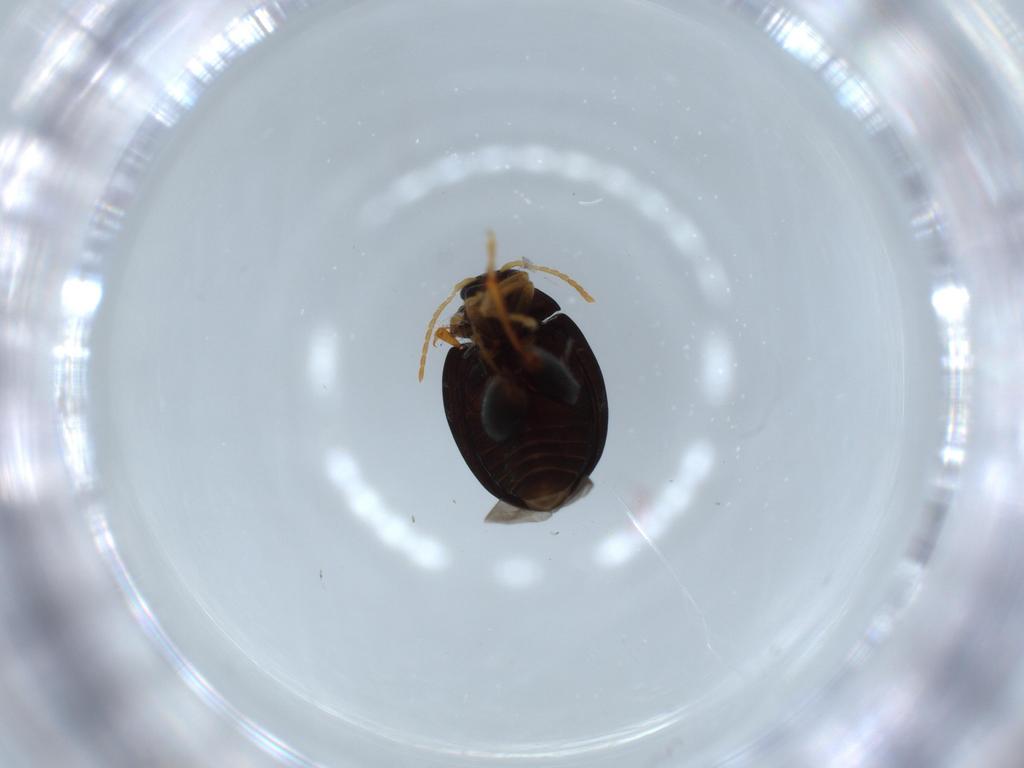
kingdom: Animalia
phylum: Arthropoda
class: Insecta
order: Coleoptera
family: Chrysomelidae
